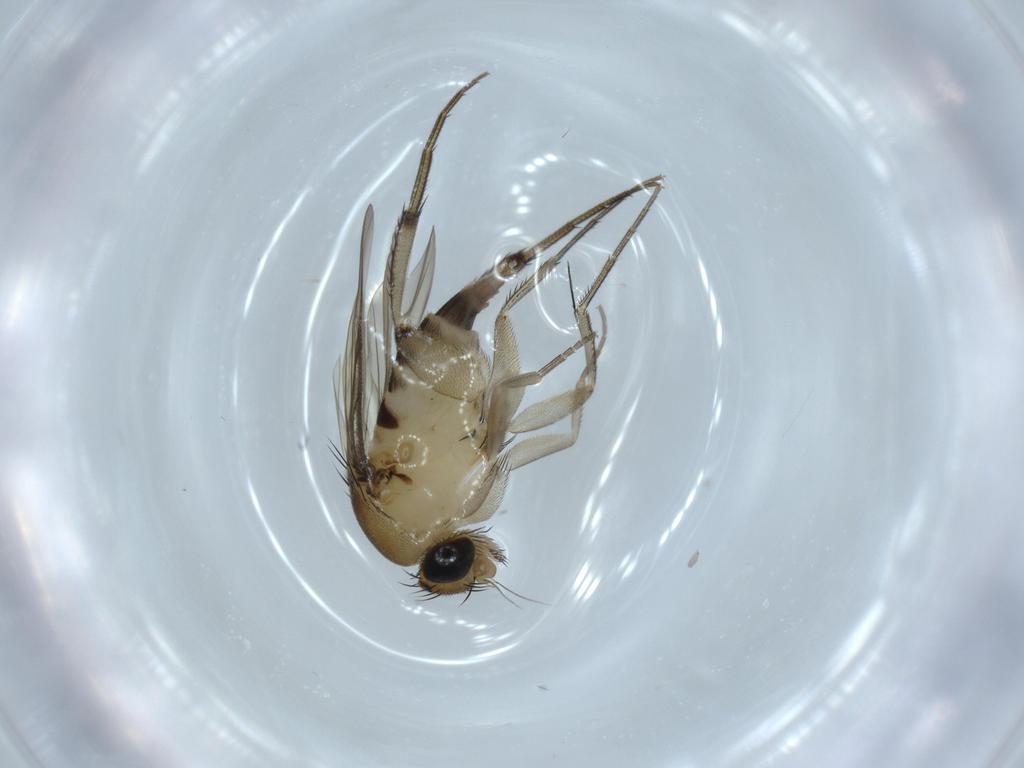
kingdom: Animalia
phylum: Arthropoda
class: Insecta
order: Diptera
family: Phoridae
